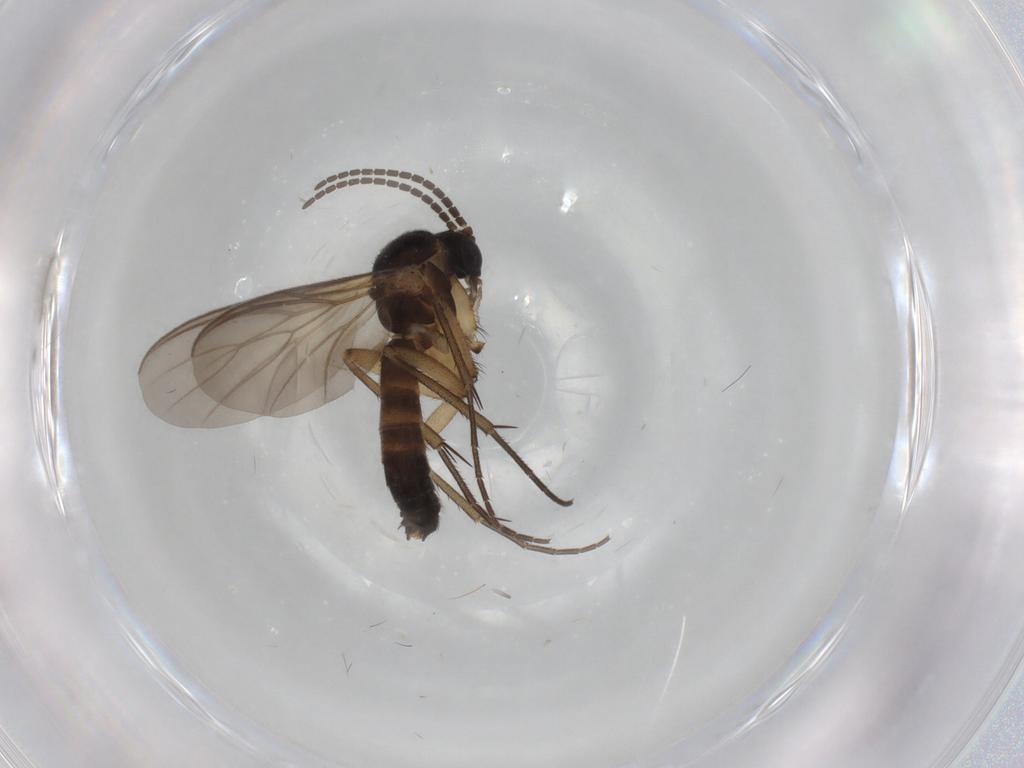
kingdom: Animalia
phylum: Arthropoda
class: Insecta
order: Diptera
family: Mycetophilidae
